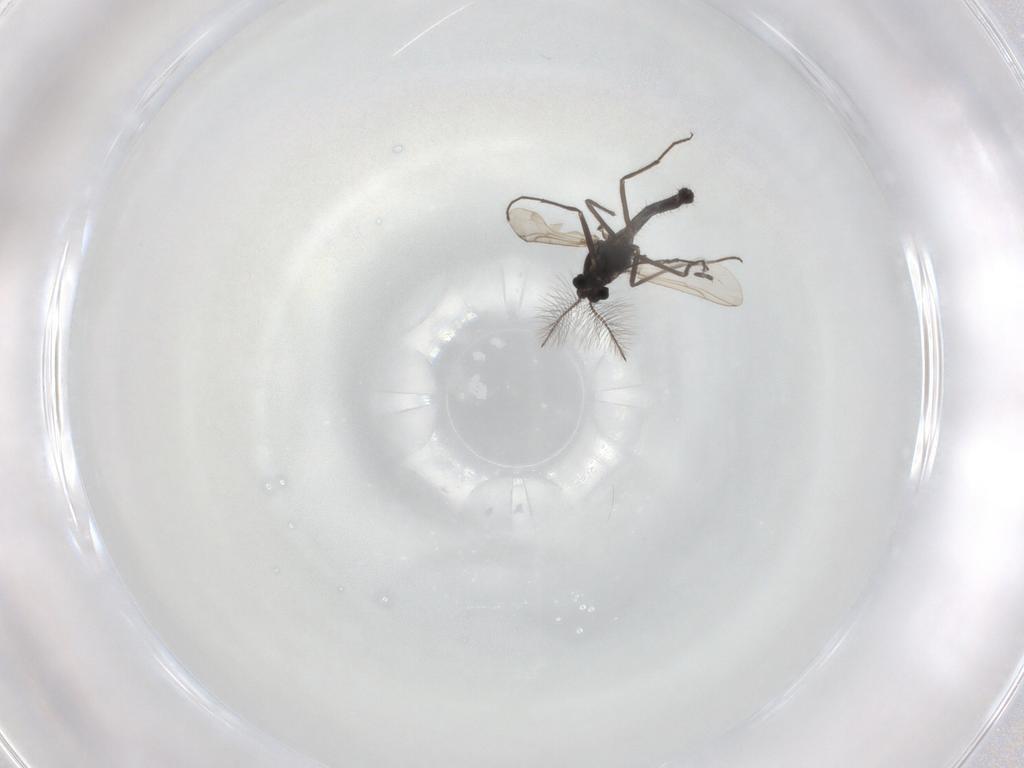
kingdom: Animalia
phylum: Arthropoda
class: Insecta
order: Diptera
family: Chironomidae
